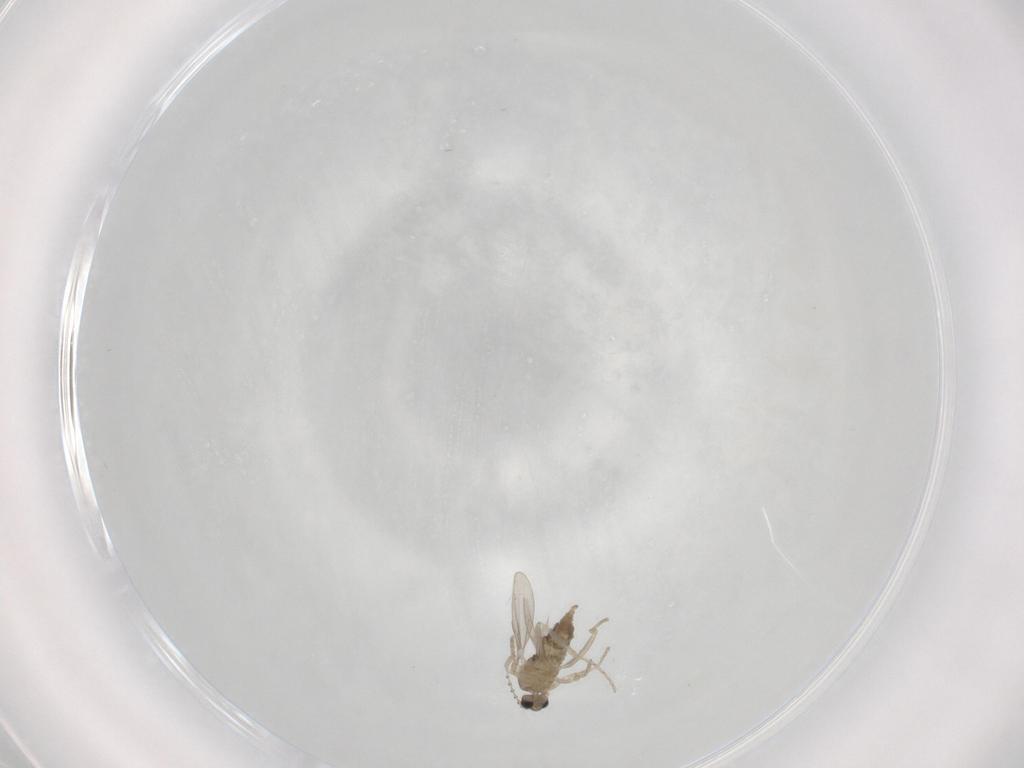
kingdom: Animalia
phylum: Arthropoda
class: Insecta
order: Diptera
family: Cecidomyiidae
